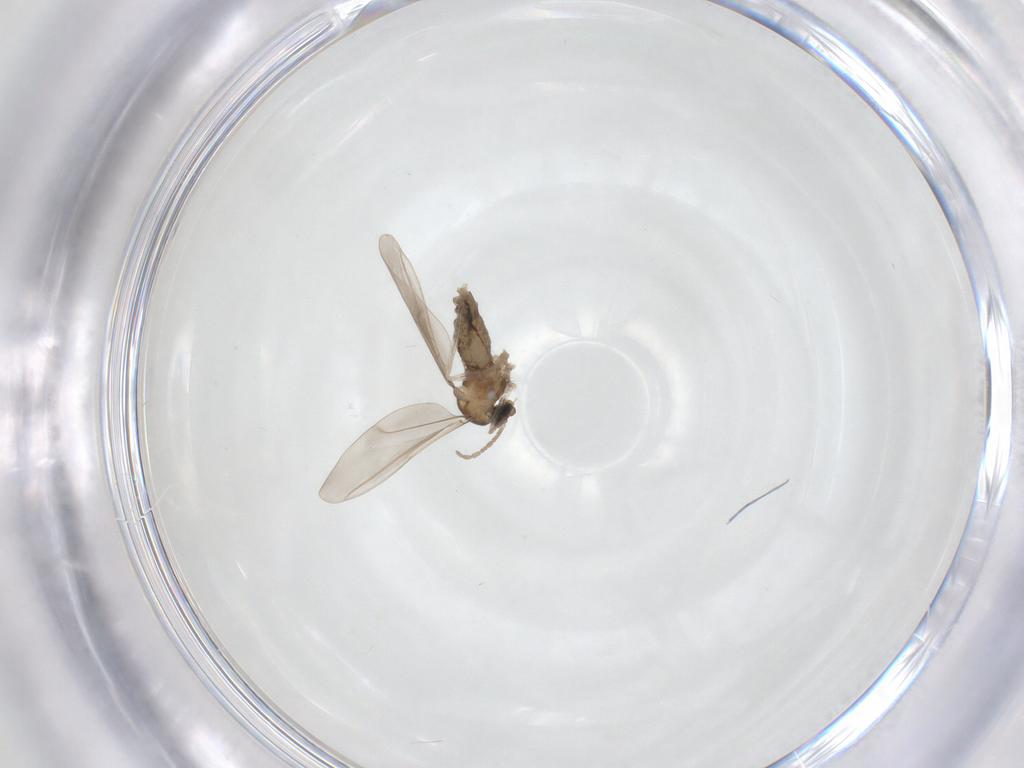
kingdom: Animalia
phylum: Arthropoda
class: Insecta
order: Diptera
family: Cecidomyiidae
